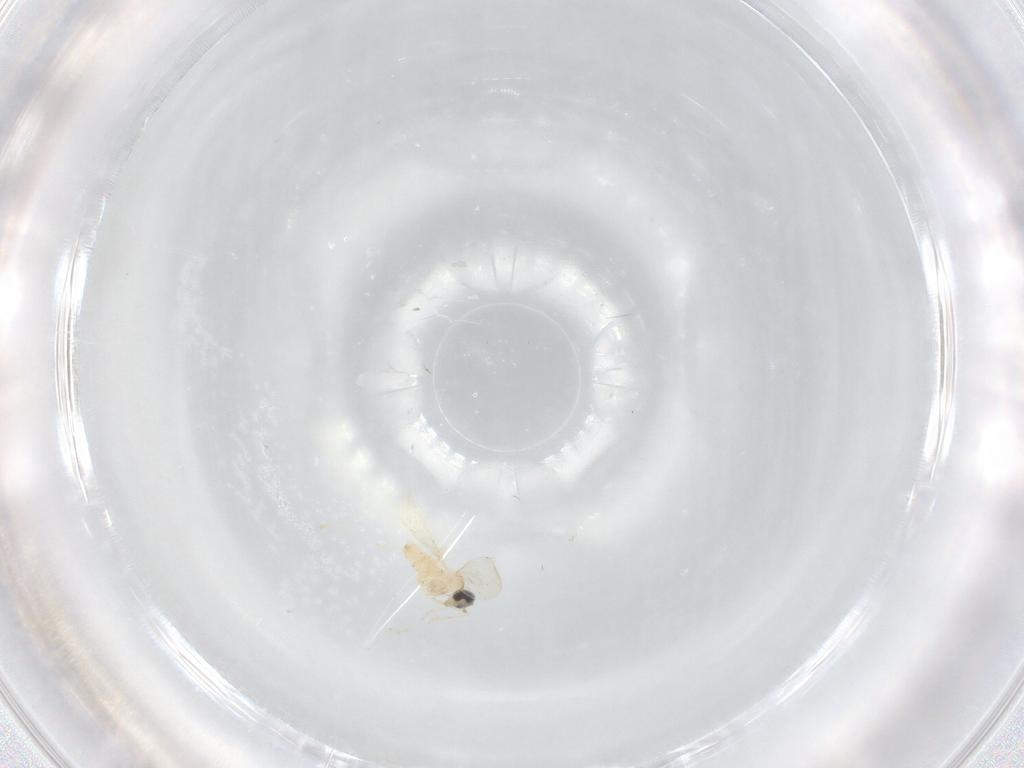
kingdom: Animalia
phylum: Arthropoda
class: Insecta
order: Diptera
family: Cecidomyiidae
